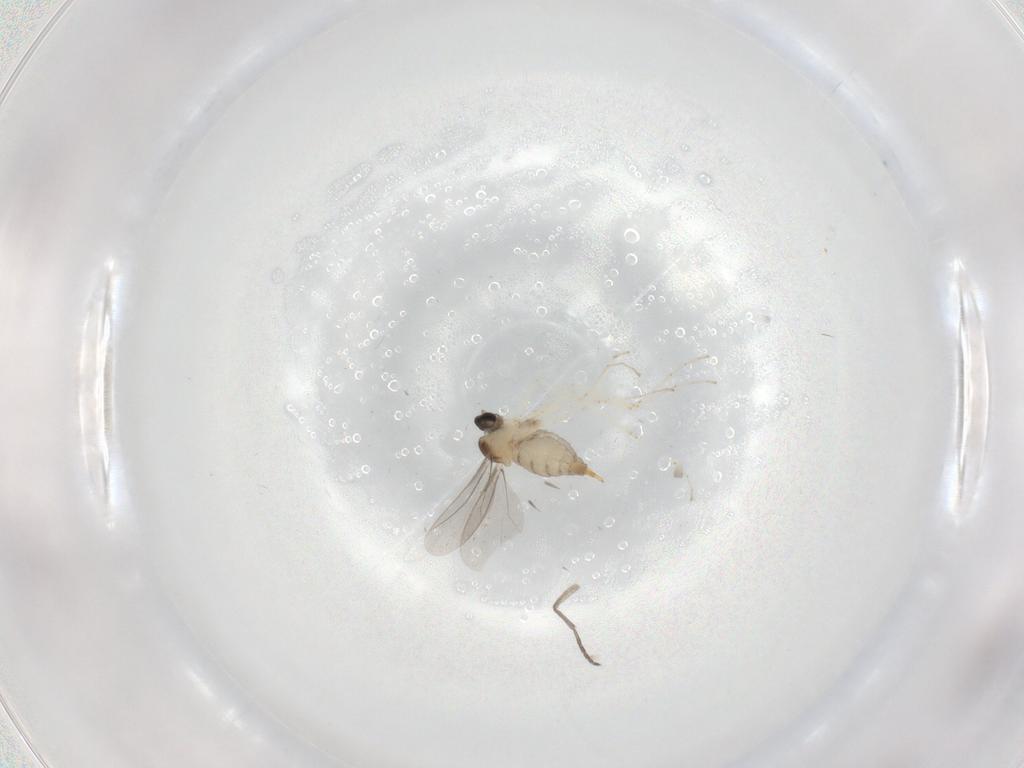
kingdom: Animalia
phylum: Arthropoda
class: Insecta
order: Diptera
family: Cecidomyiidae
